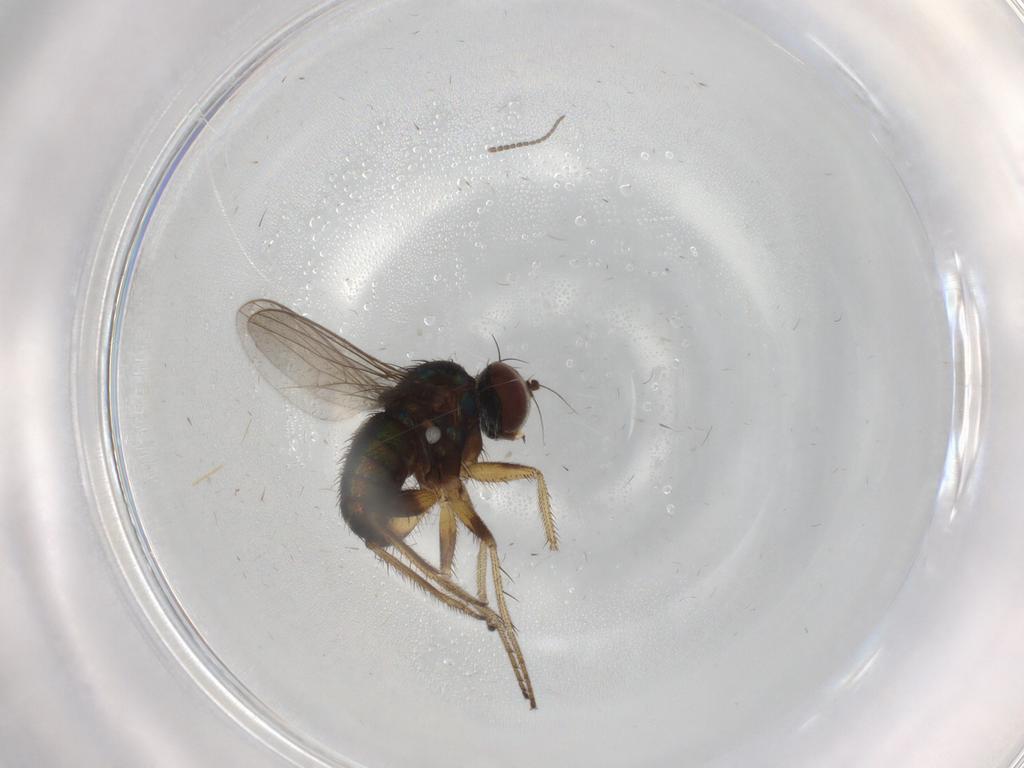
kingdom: Animalia
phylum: Arthropoda
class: Insecta
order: Diptera
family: Dolichopodidae
